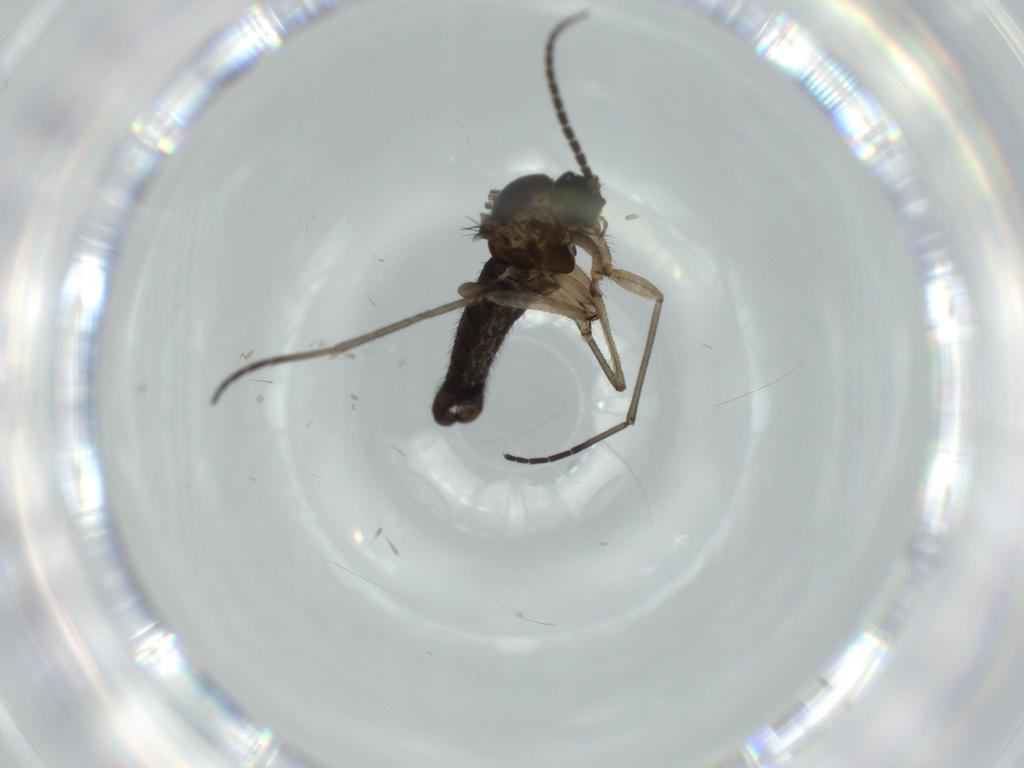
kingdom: Animalia
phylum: Arthropoda
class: Insecta
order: Diptera
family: Sciaridae
